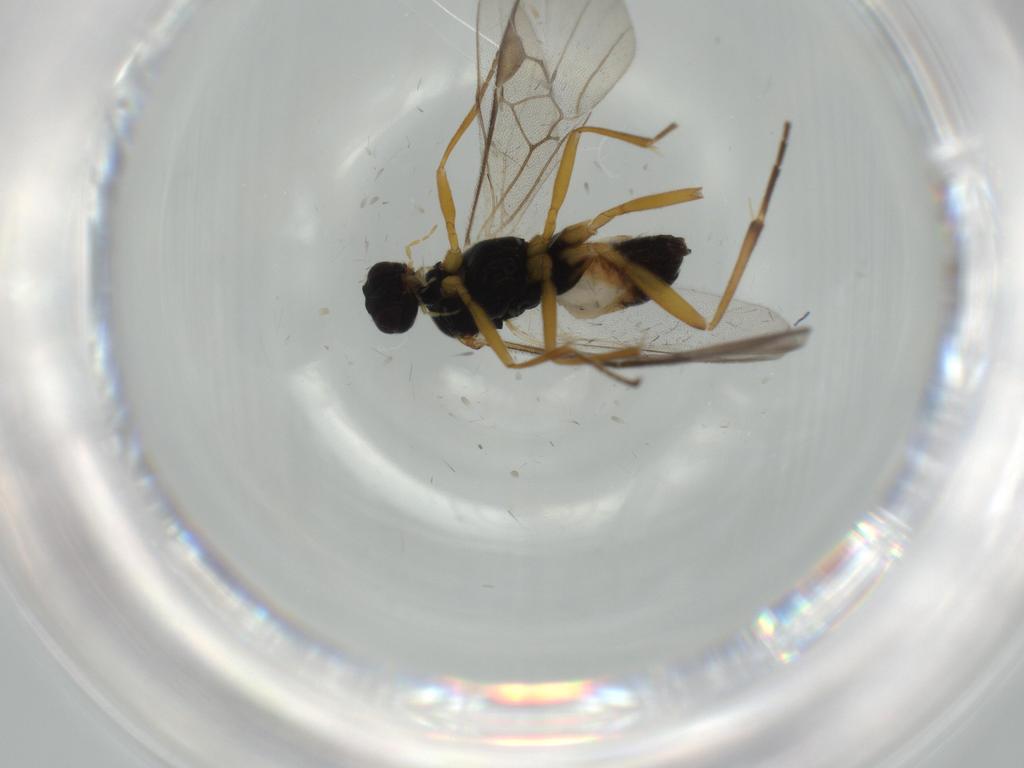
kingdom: Animalia
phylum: Arthropoda
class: Insecta
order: Hymenoptera
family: Braconidae
